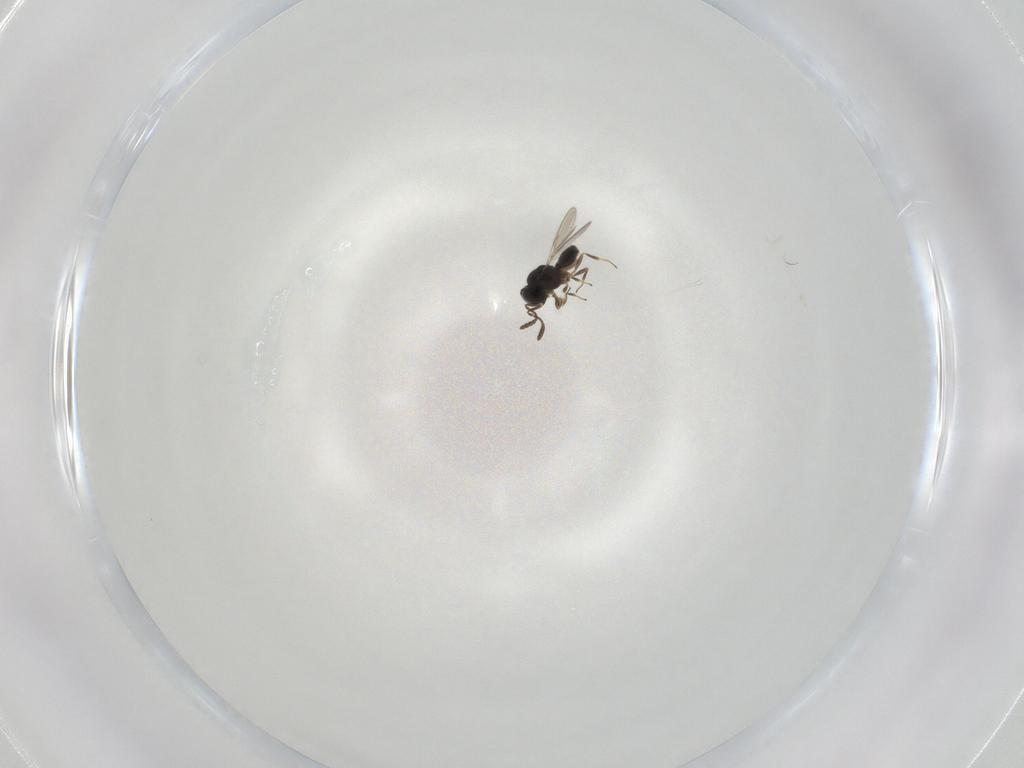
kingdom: Animalia
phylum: Arthropoda
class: Insecta
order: Hymenoptera
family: Scelionidae
